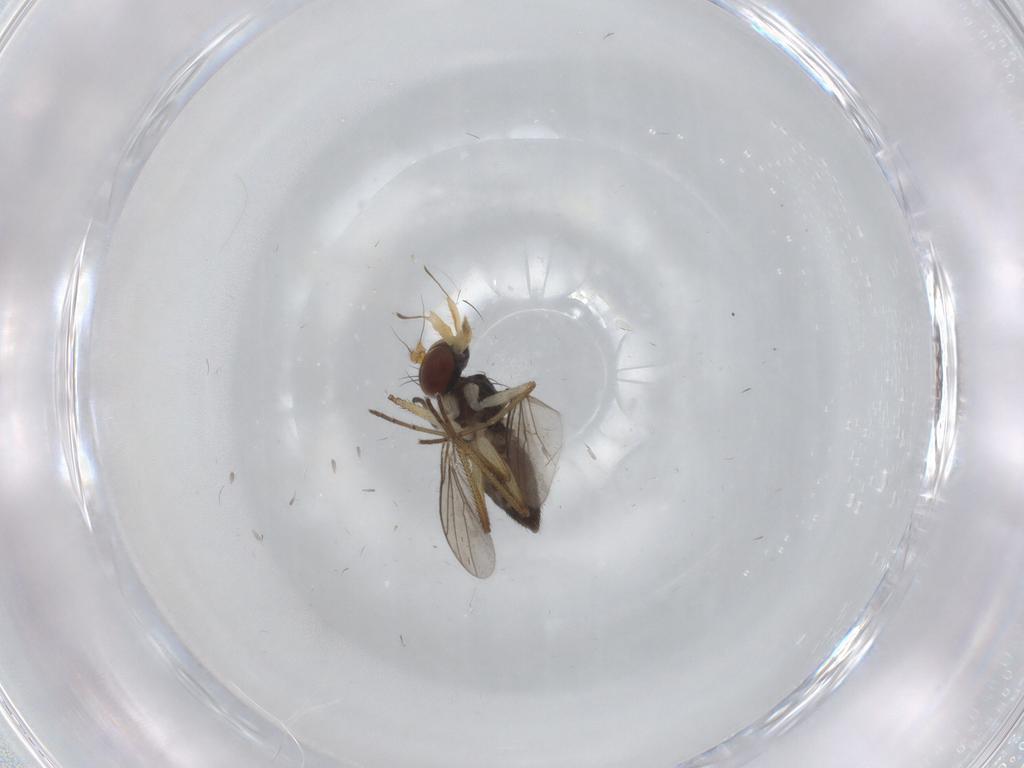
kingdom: Animalia
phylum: Arthropoda
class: Insecta
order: Diptera
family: Dolichopodidae
